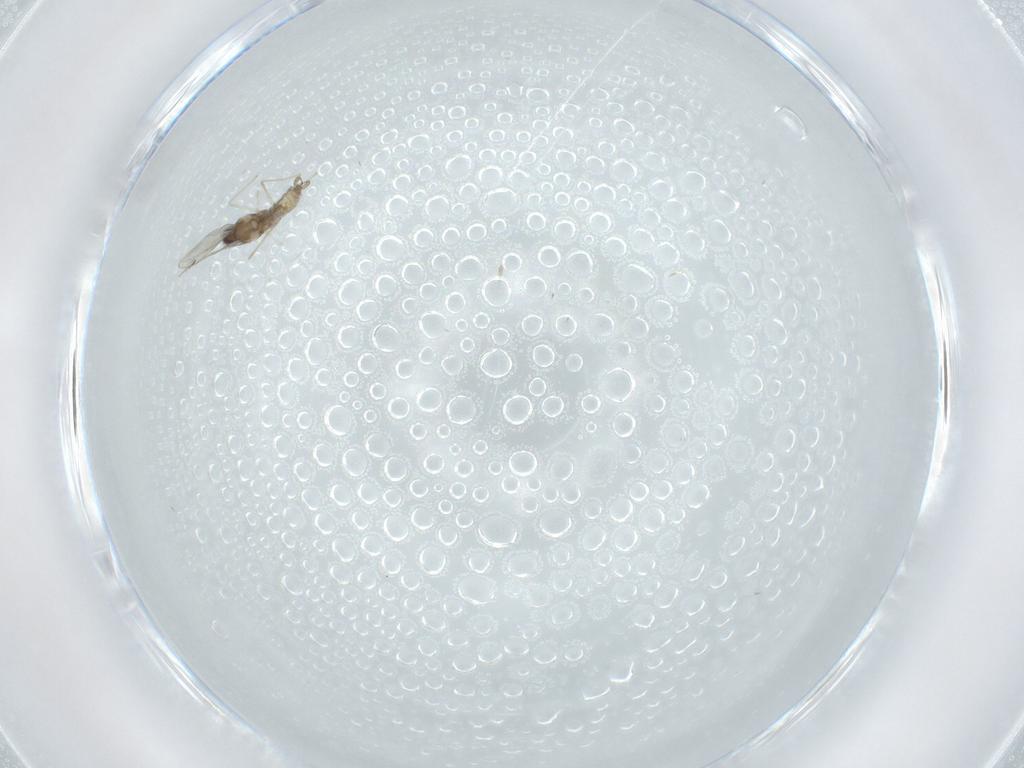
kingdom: Animalia
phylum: Arthropoda
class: Insecta
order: Diptera
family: Cecidomyiidae
